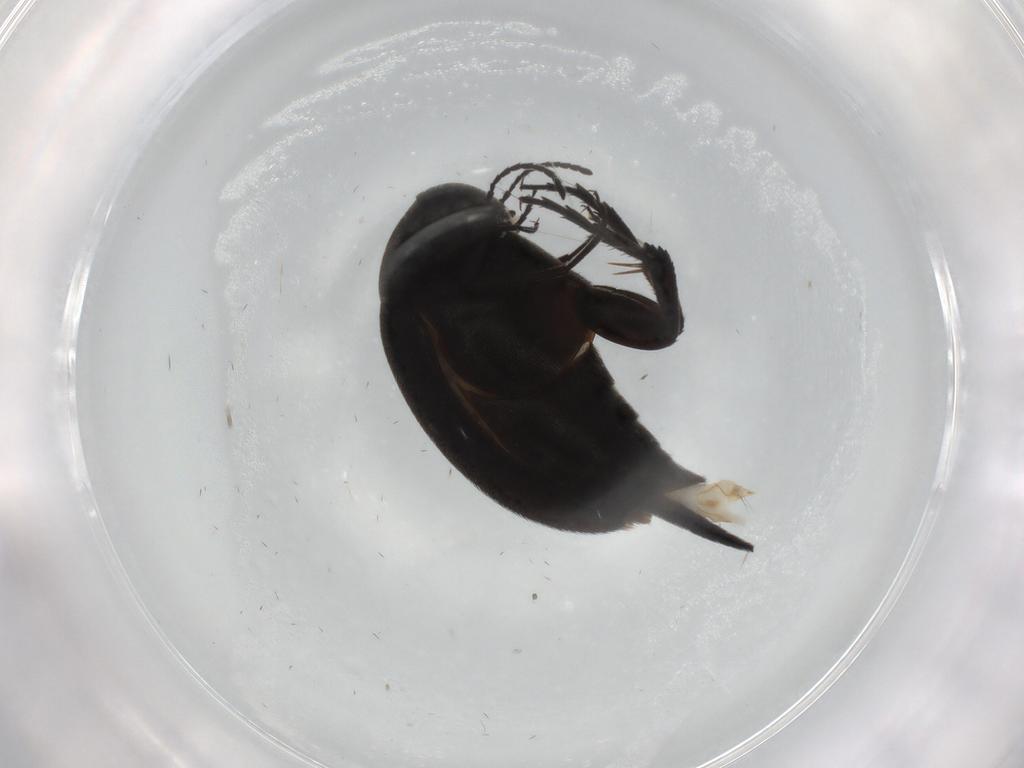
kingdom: Animalia
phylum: Arthropoda
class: Insecta
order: Coleoptera
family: Mordellidae
